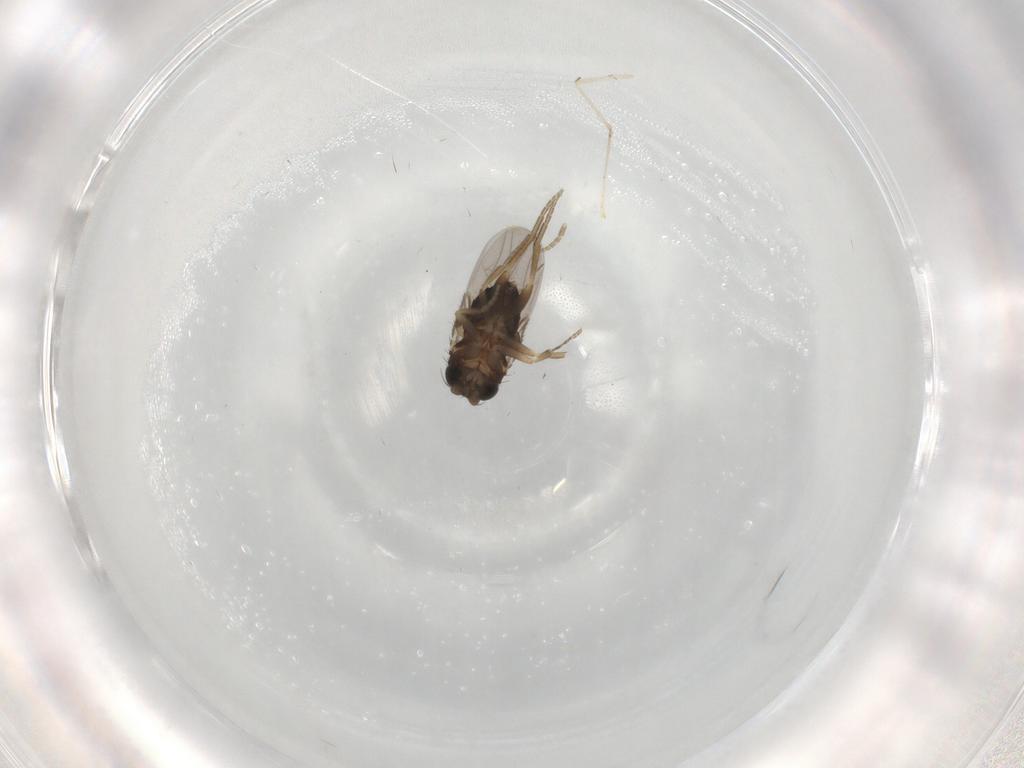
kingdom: Animalia
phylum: Arthropoda
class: Insecta
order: Diptera
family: Cecidomyiidae
